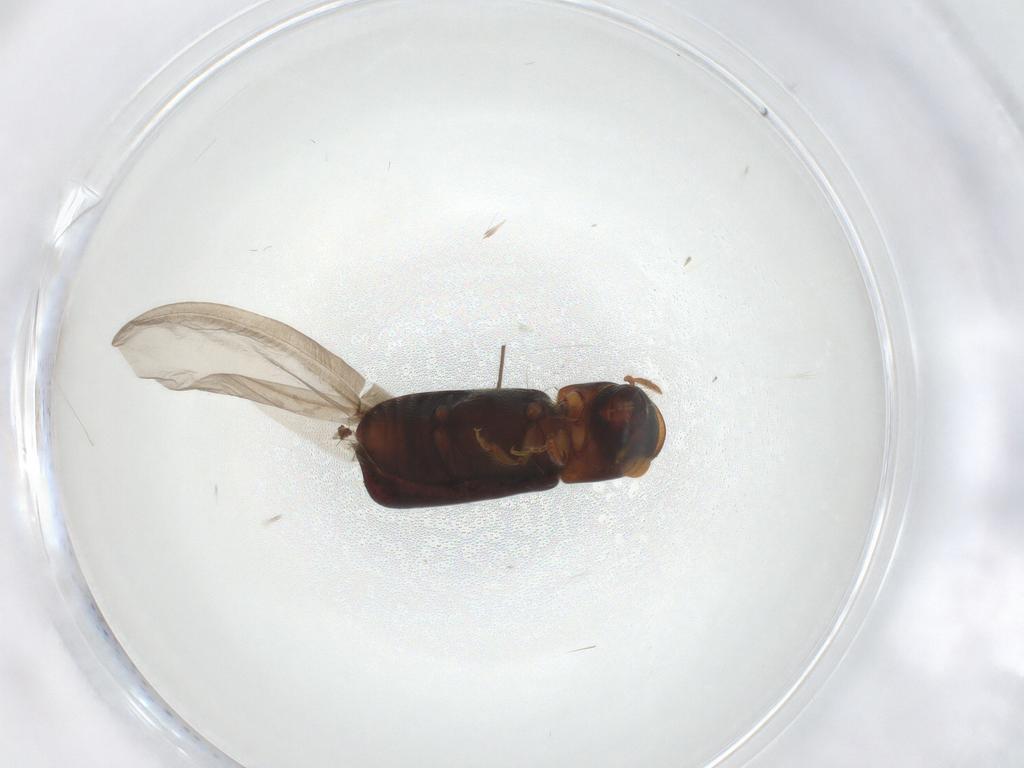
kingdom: Animalia
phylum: Arthropoda
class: Insecta
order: Coleoptera
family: Curculionidae
